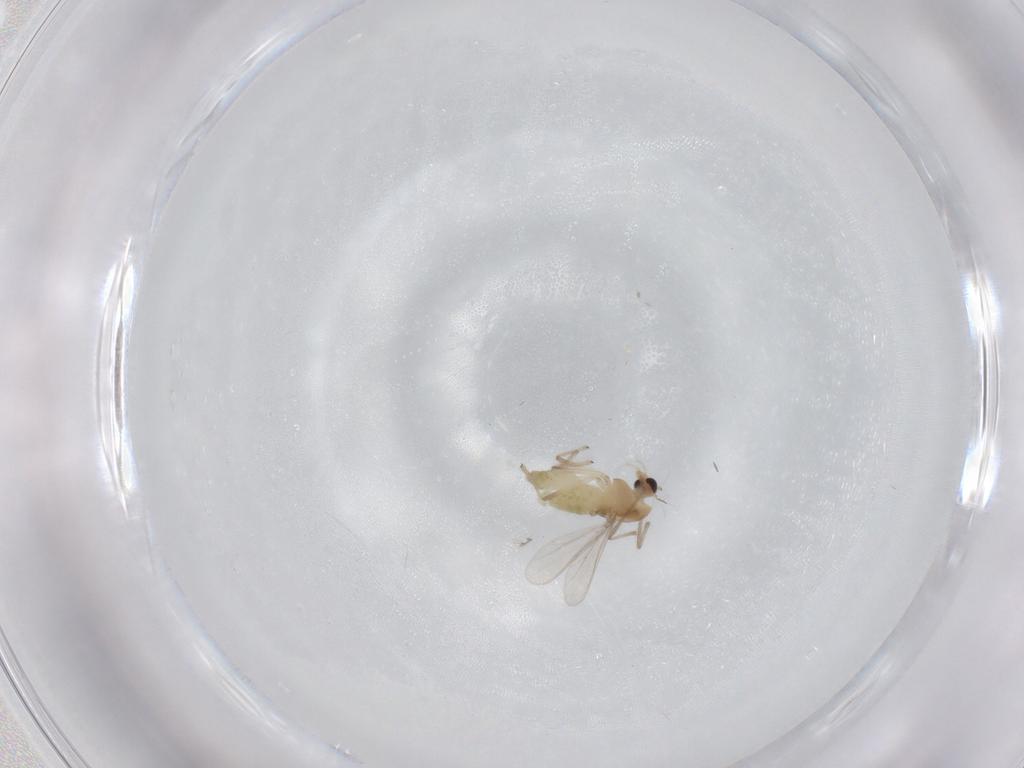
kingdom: Animalia
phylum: Arthropoda
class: Insecta
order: Diptera
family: Chironomidae
